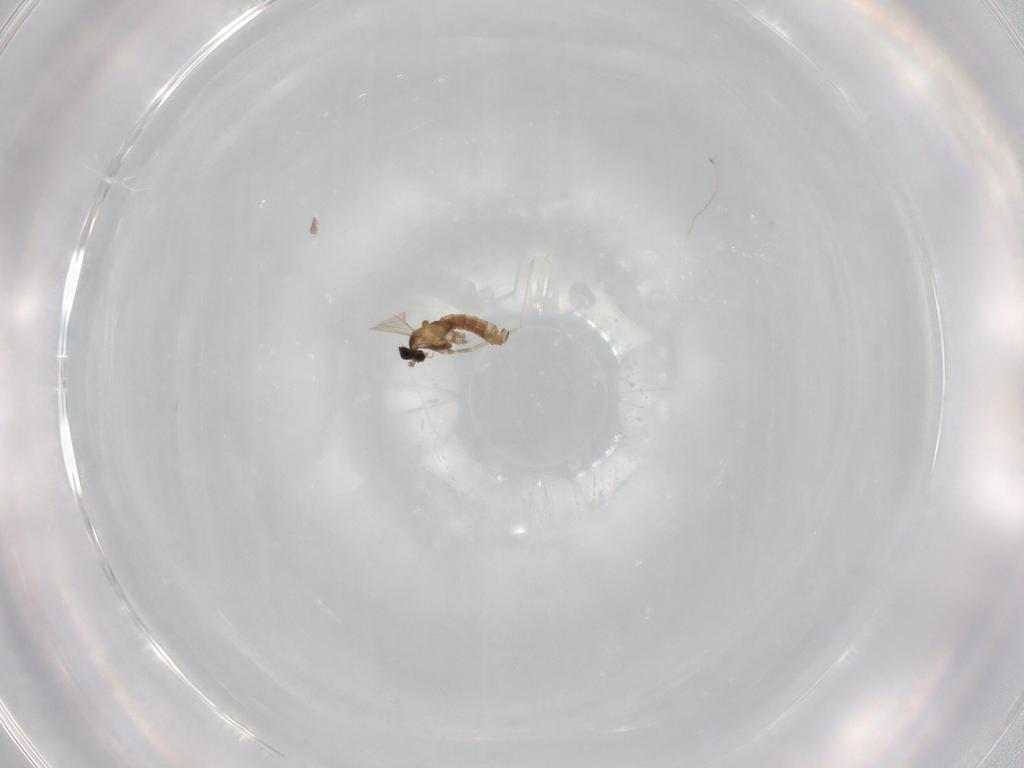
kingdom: Animalia
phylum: Arthropoda
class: Insecta
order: Diptera
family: Cecidomyiidae
